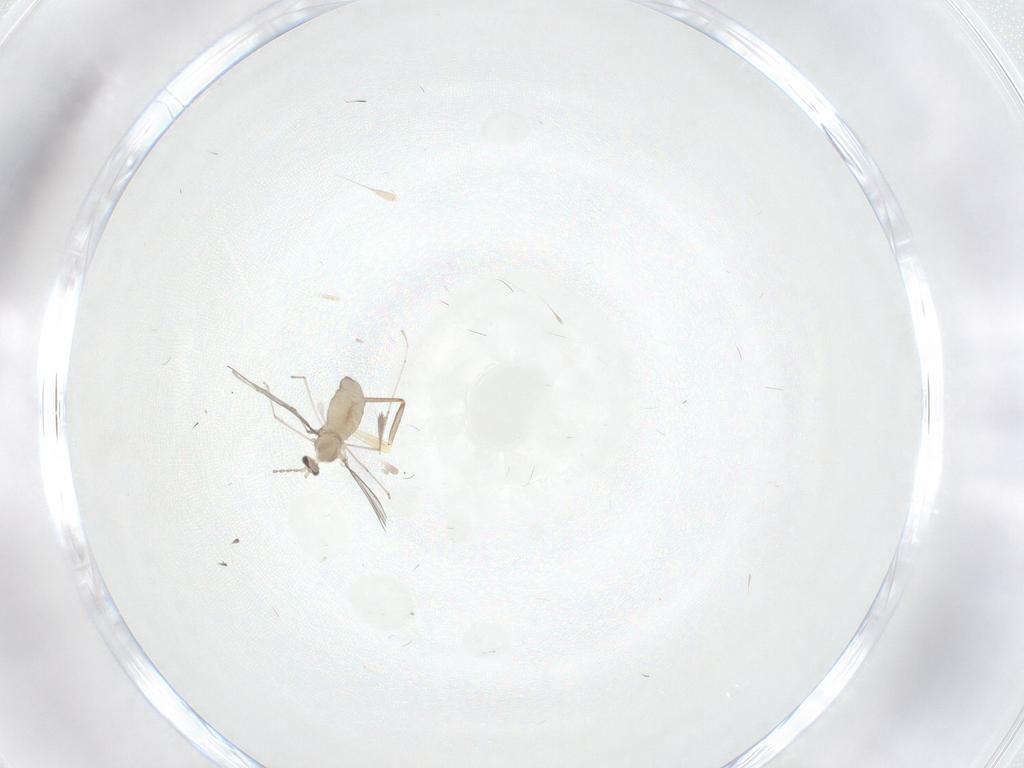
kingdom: Animalia
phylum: Arthropoda
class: Insecta
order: Diptera
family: Cecidomyiidae
